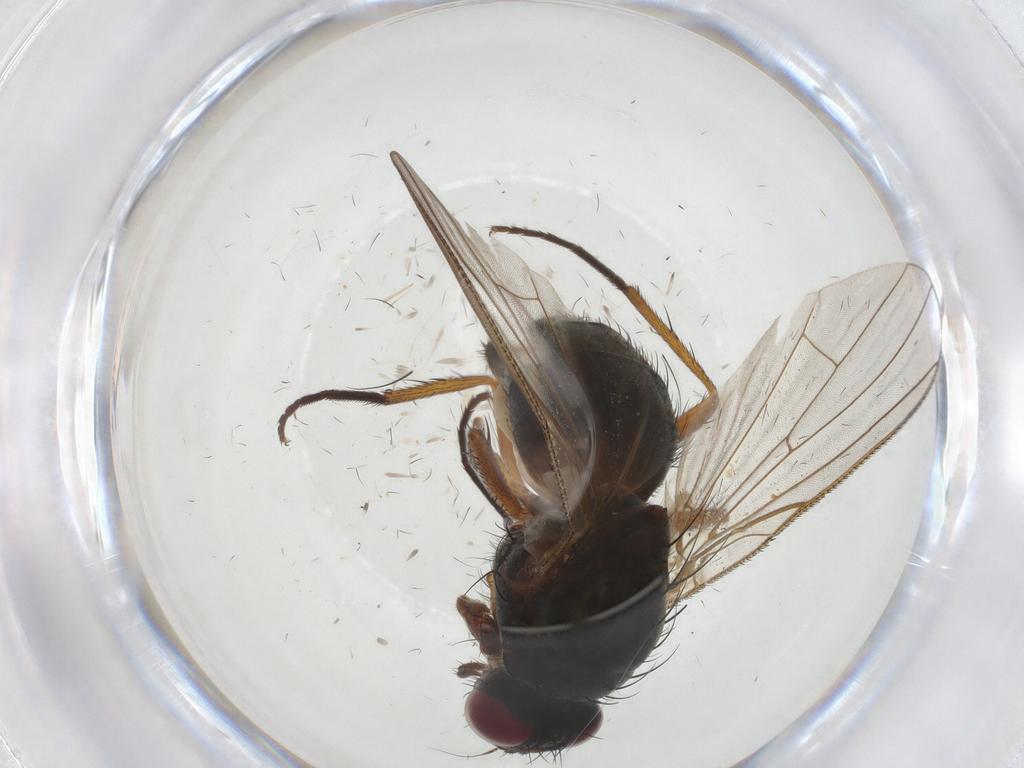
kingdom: Animalia
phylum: Arthropoda
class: Insecta
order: Diptera
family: Anthomyiidae
